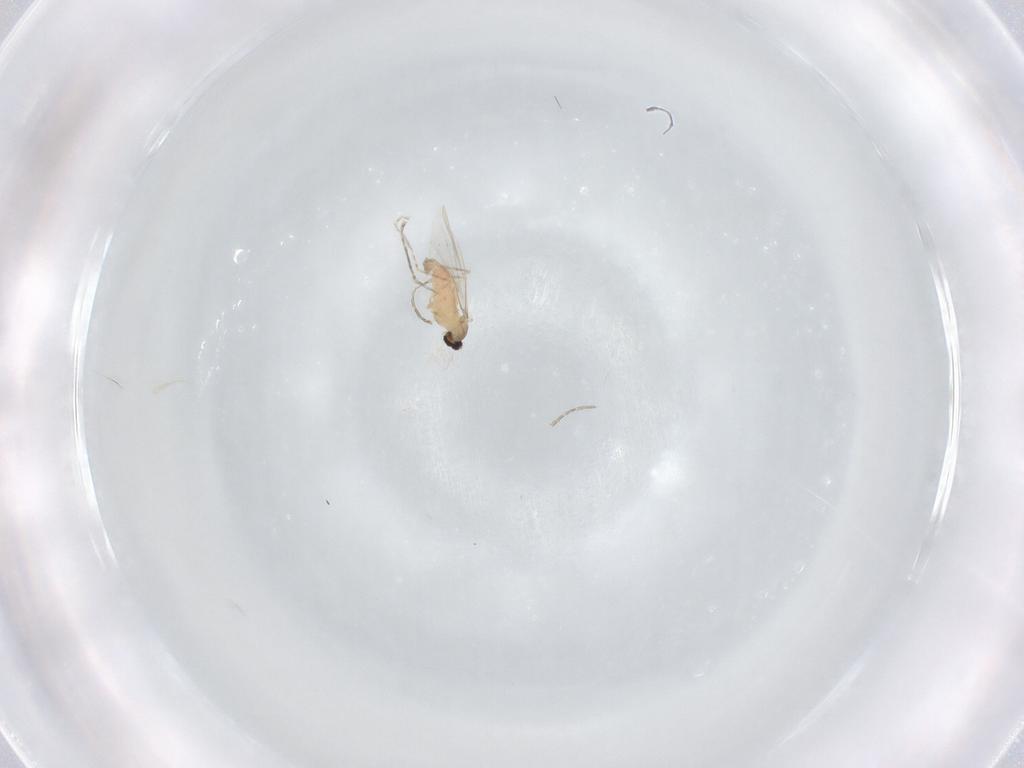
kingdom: Animalia
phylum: Arthropoda
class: Insecta
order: Diptera
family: Cecidomyiidae
